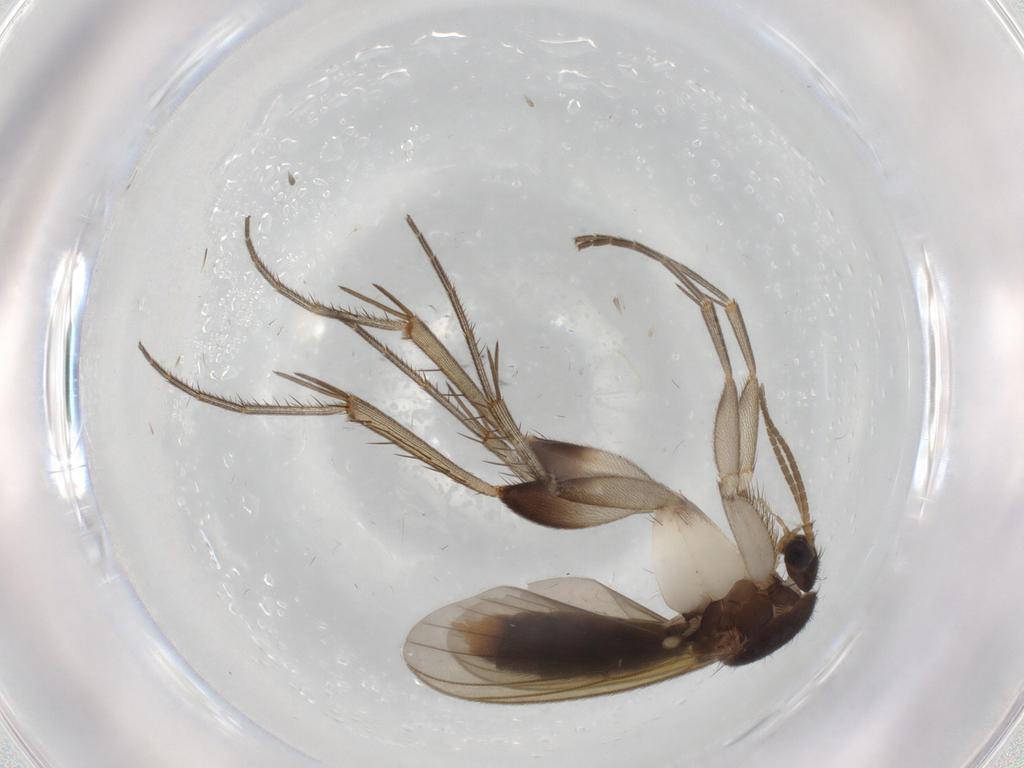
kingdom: Animalia
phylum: Arthropoda
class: Insecta
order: Diptera
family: Mycetophilidae
